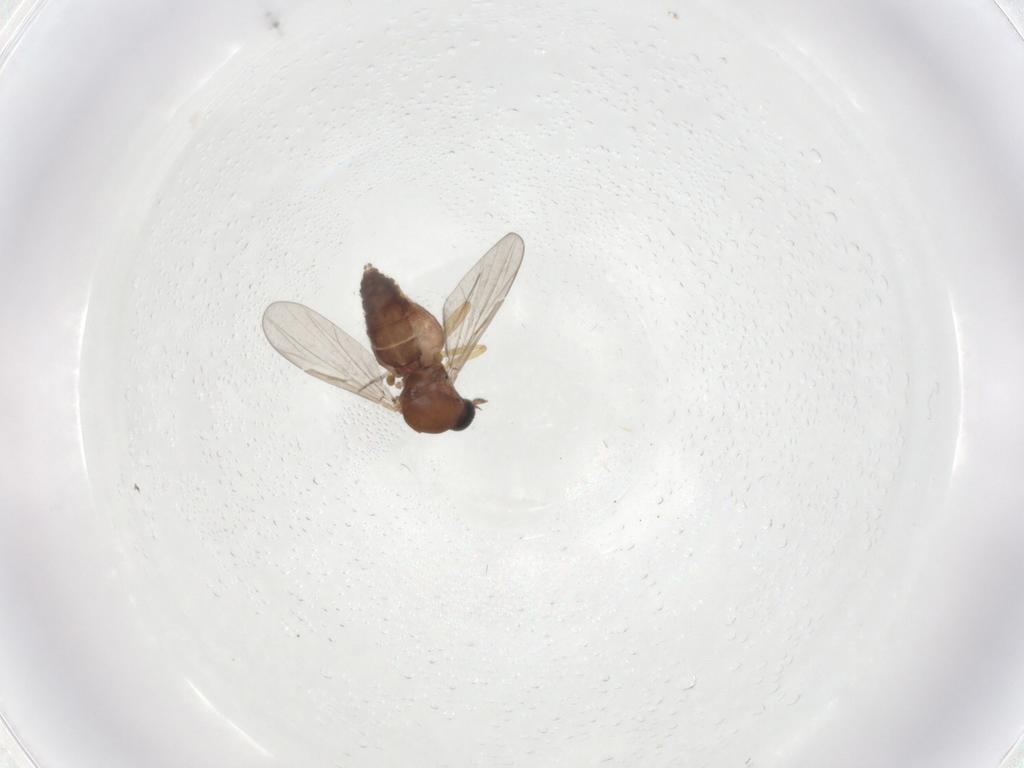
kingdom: Animalia
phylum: Arthropoda
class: Insecta
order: Diptera
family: Ceratopogonidae
